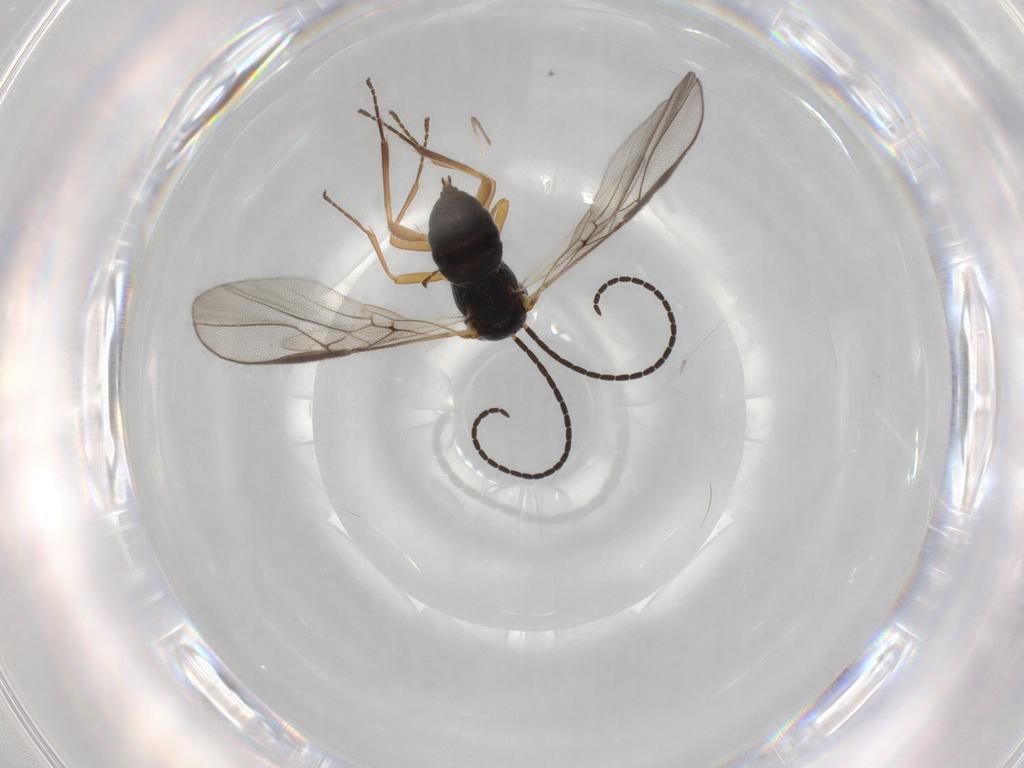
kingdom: Animalia
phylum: Arthropoda
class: Insecta
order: Hymenoptera
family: Braconidae
